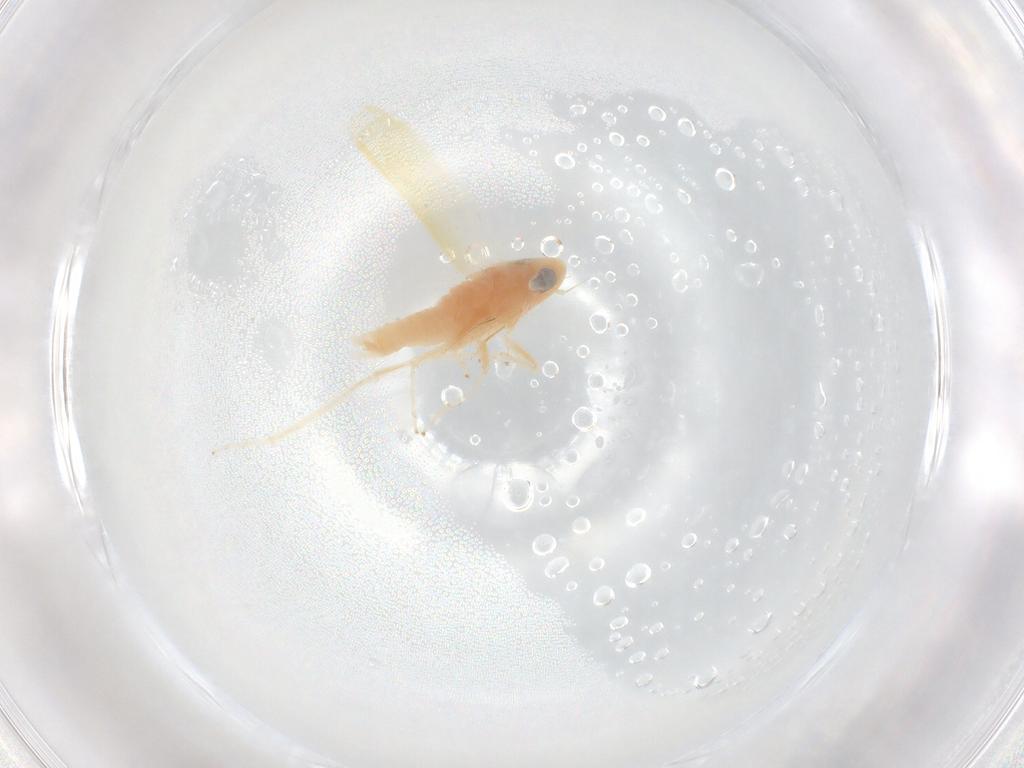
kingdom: Animalia
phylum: Arthropoda
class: Insecta
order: Hemiptera
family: Cicadellidae
